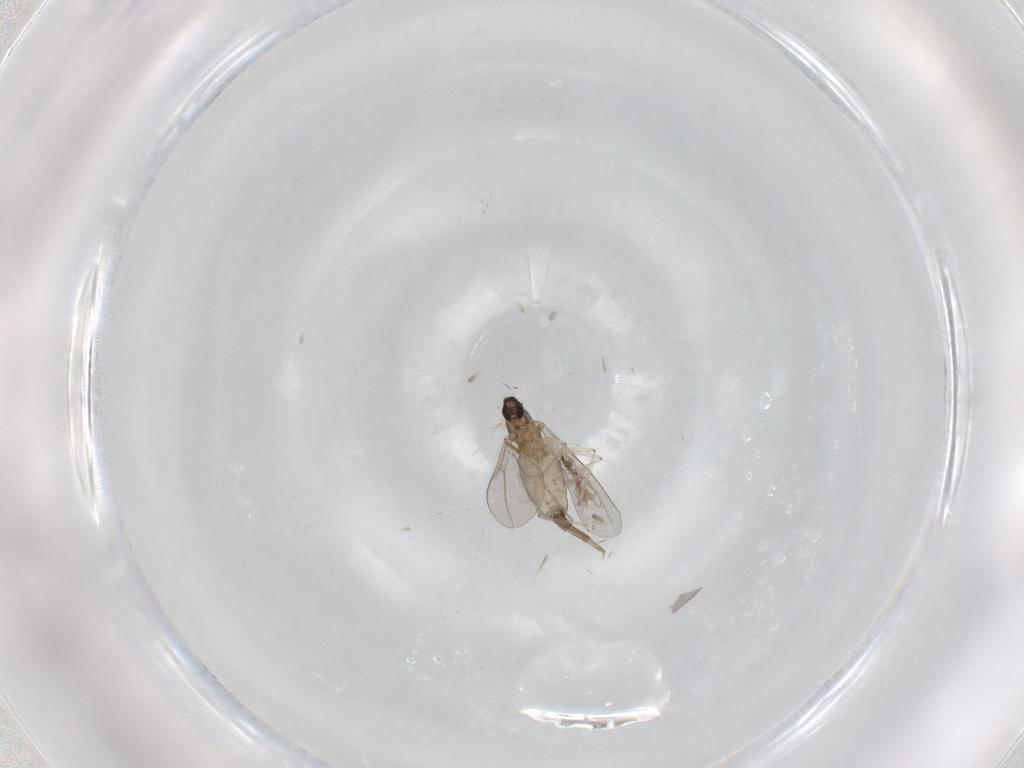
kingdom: Animalia
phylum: Arthropoda
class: Insecta
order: Diptera
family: Cecidomyiidae
